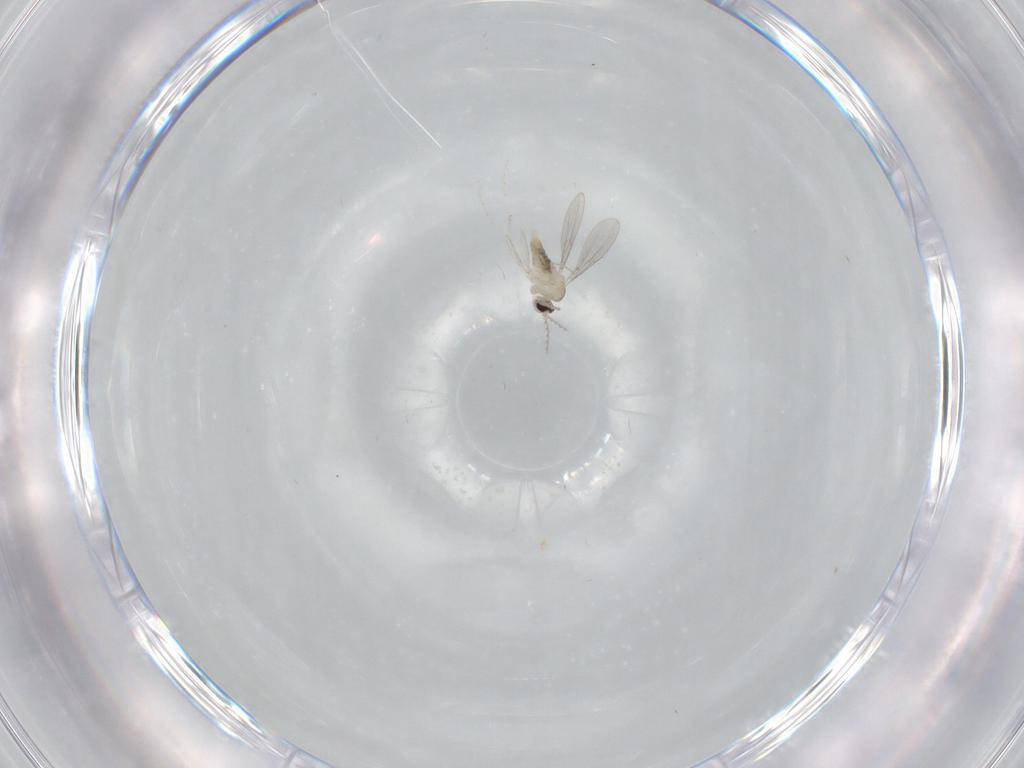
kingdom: Animalia
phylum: Arthropoda
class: Insecta
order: Diptera
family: Cecidomyiidae
